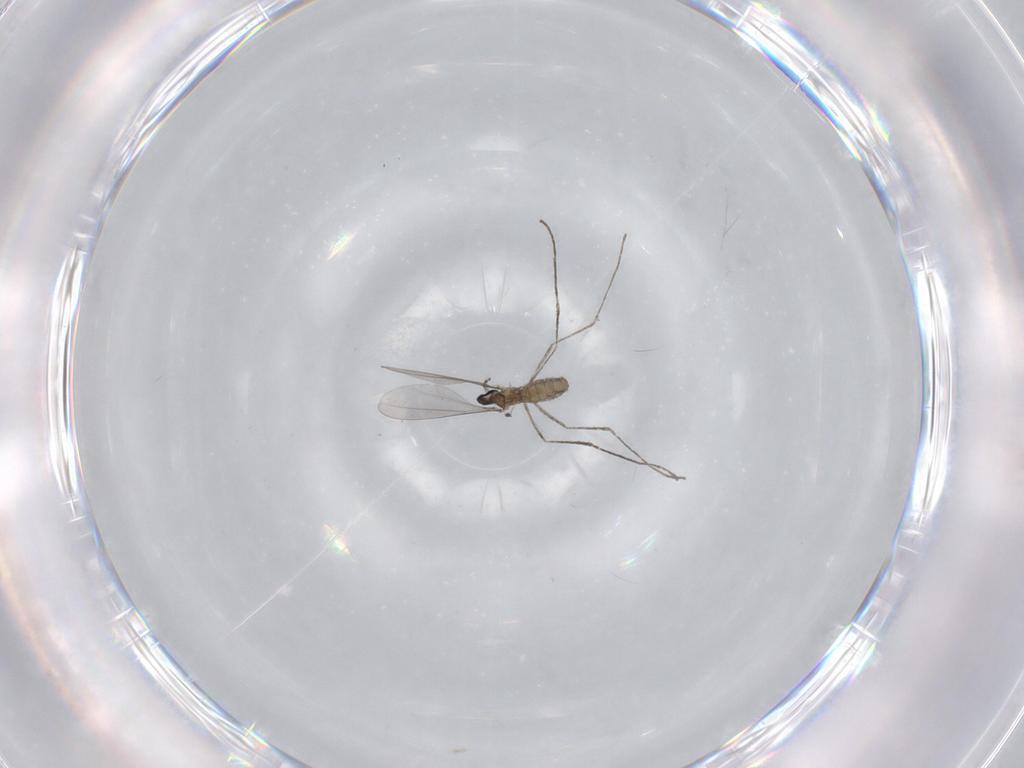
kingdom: Animalia
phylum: Arthropoda
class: Insecta
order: Diptera
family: Cecidomyiidae
